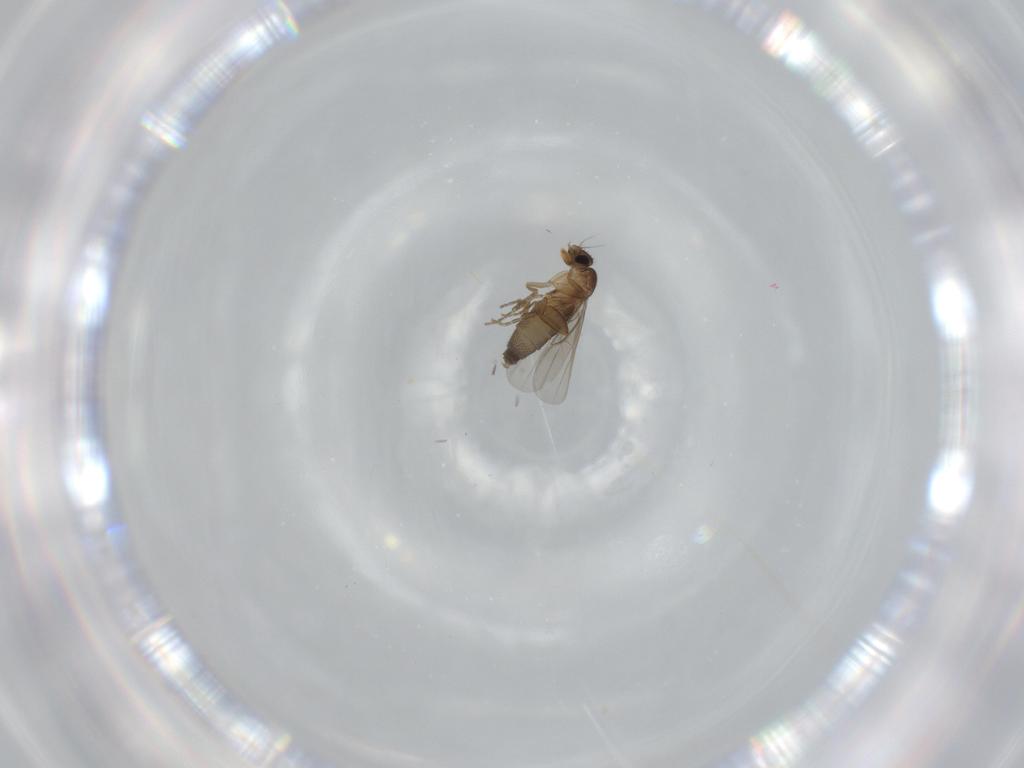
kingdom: Animalia
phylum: Arthropoda
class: Insecta
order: Diptera
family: Phoridae
